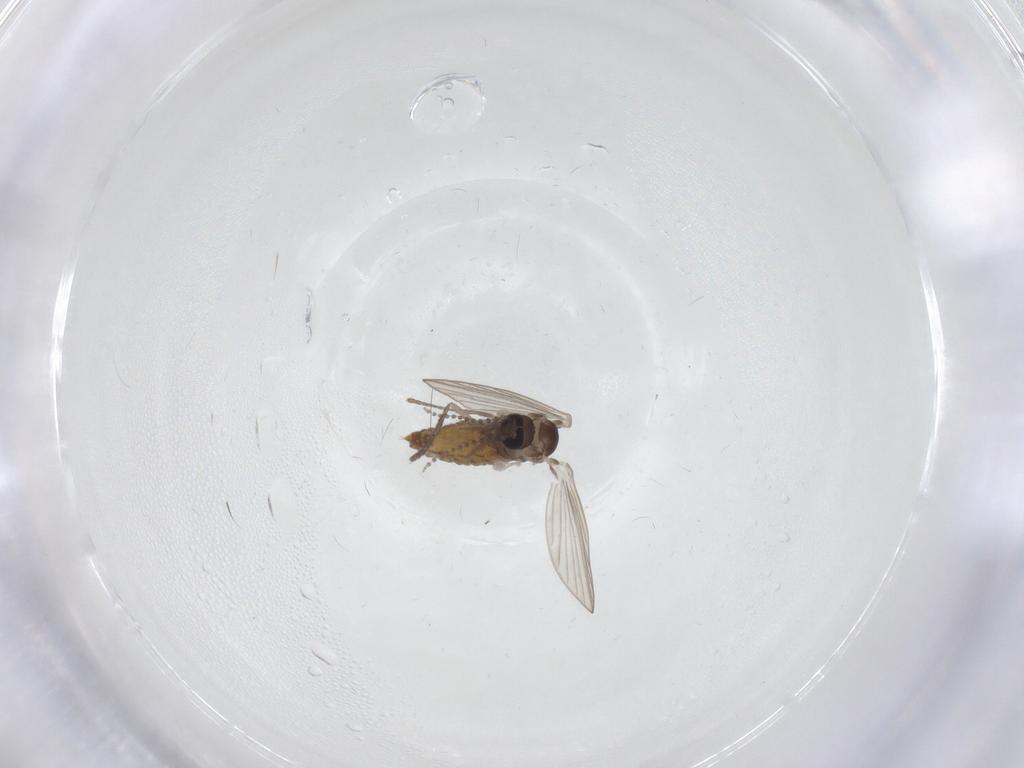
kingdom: Animalia
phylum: Arthropoda
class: Insecta
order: Diptera
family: Psychodidae
